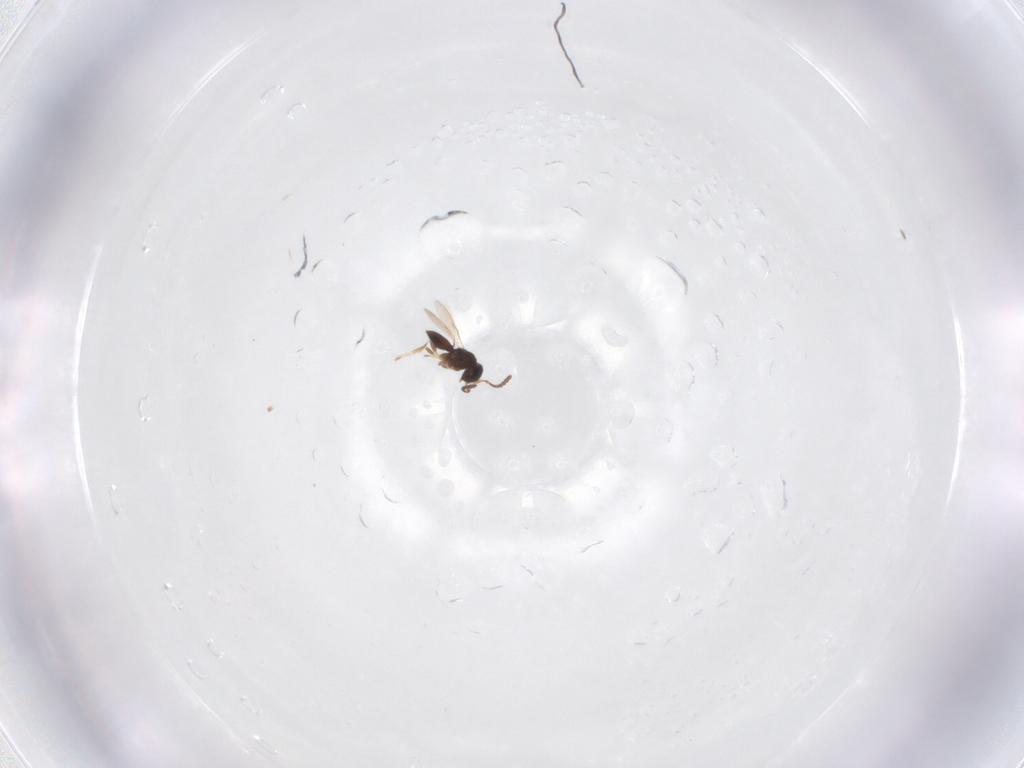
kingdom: Animalia
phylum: Arthropoda
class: Insecta
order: Hymenoptera
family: Scelionidae
